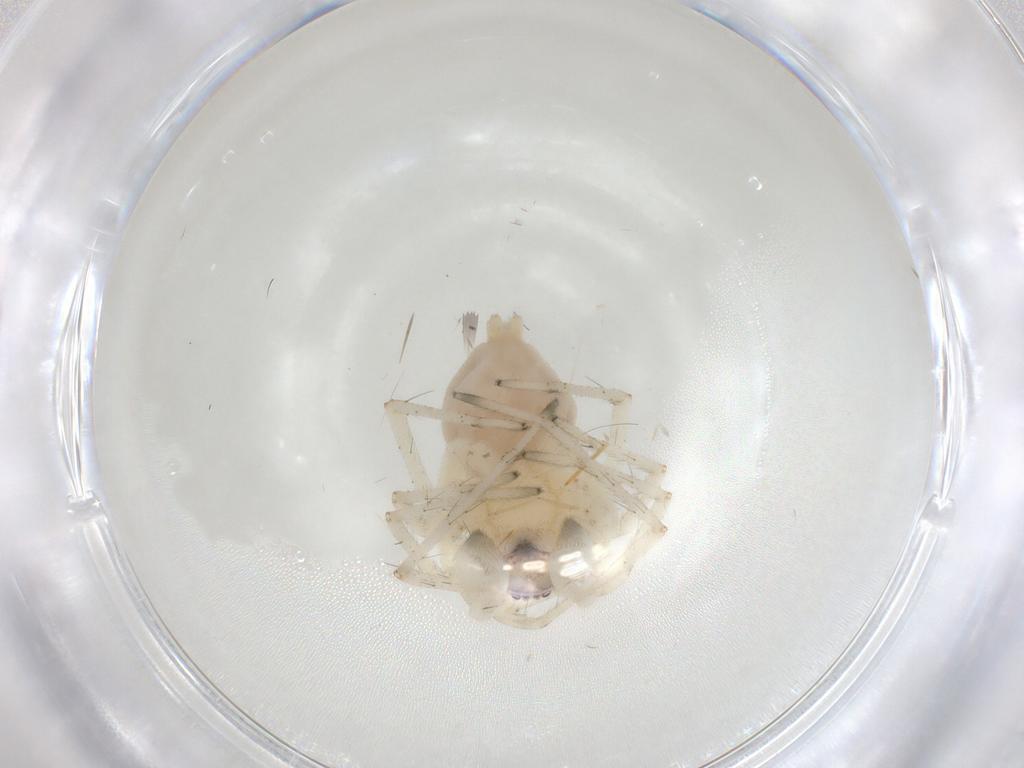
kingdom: Animalia
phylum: Arthropoda
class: Arachnida
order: Araneae
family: Anyphaenidae
